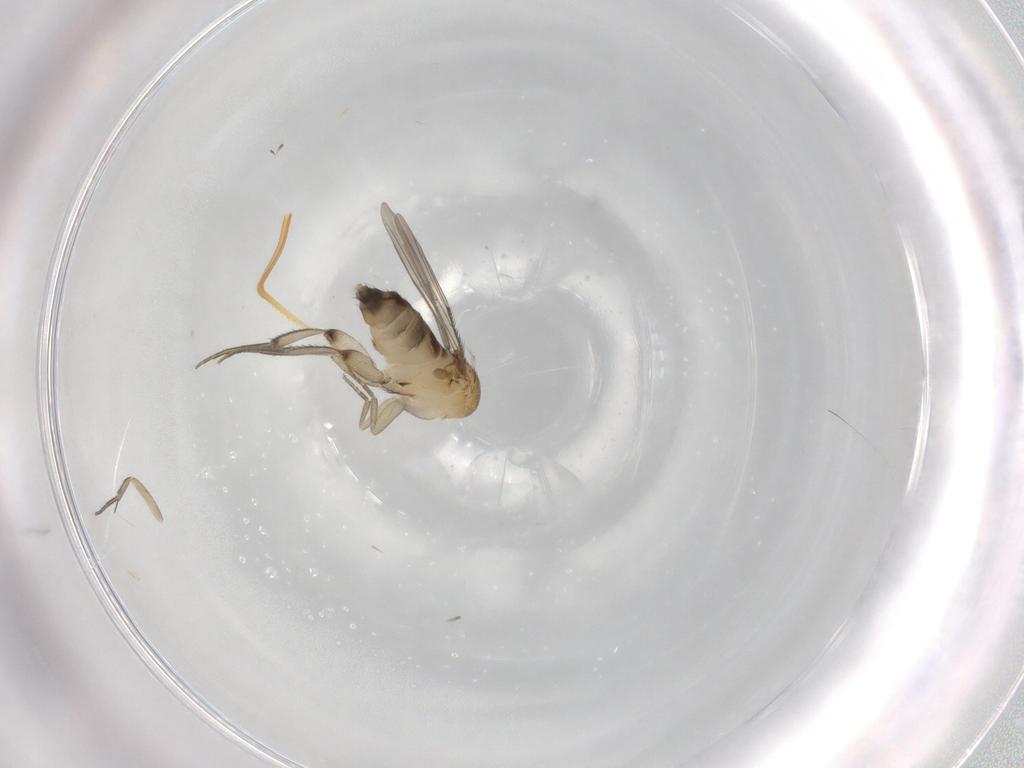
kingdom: Animalia
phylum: Arthropoda
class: Insecta
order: Diptera
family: Phoridae
